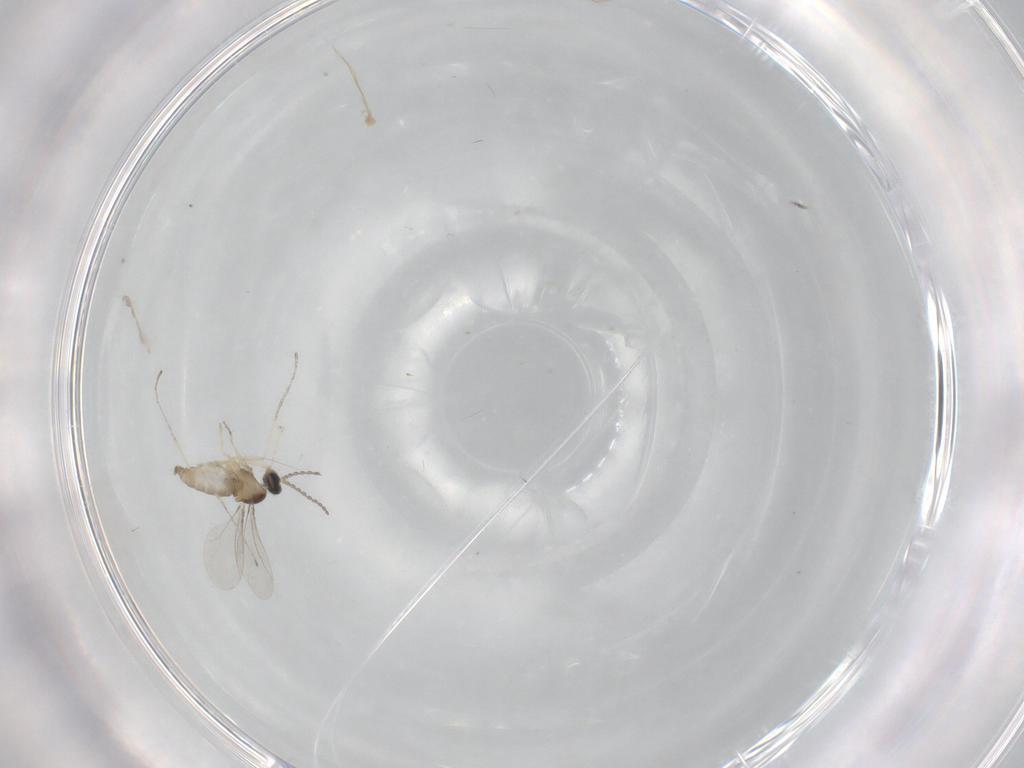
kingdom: Animalia
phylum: Arthropoda
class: Insecta
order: Diptera
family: Cecidomyiidae
